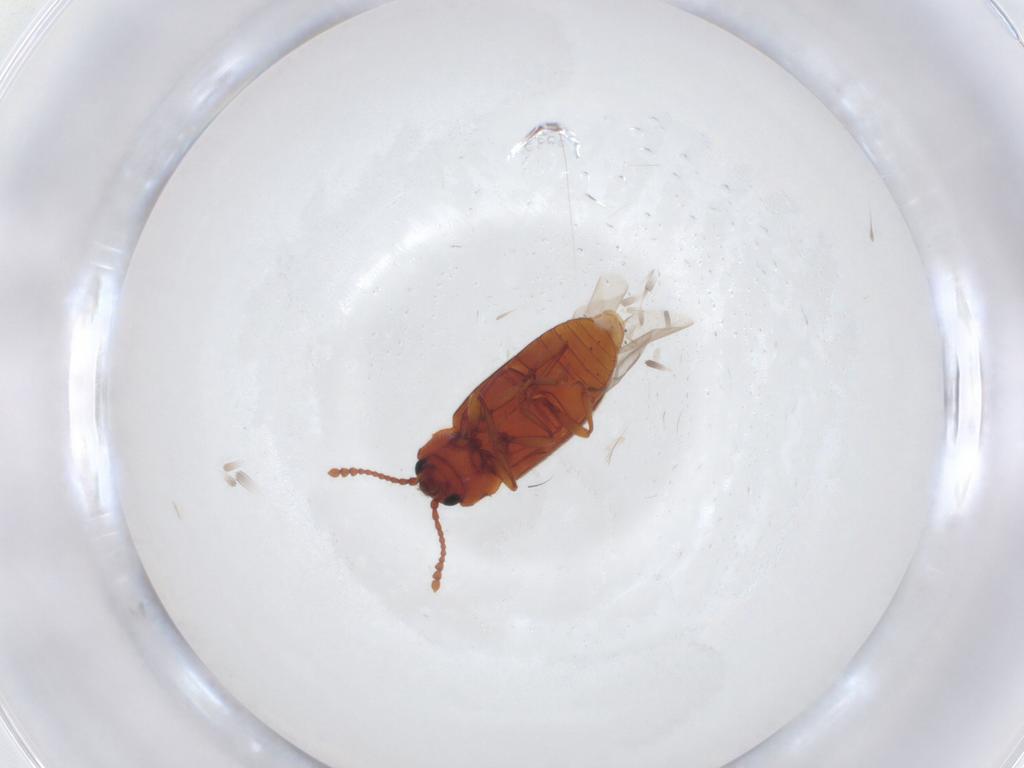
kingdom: Animalia
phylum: Arthropoda
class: Insecta
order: Coleoptera
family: Cryptophagidae
